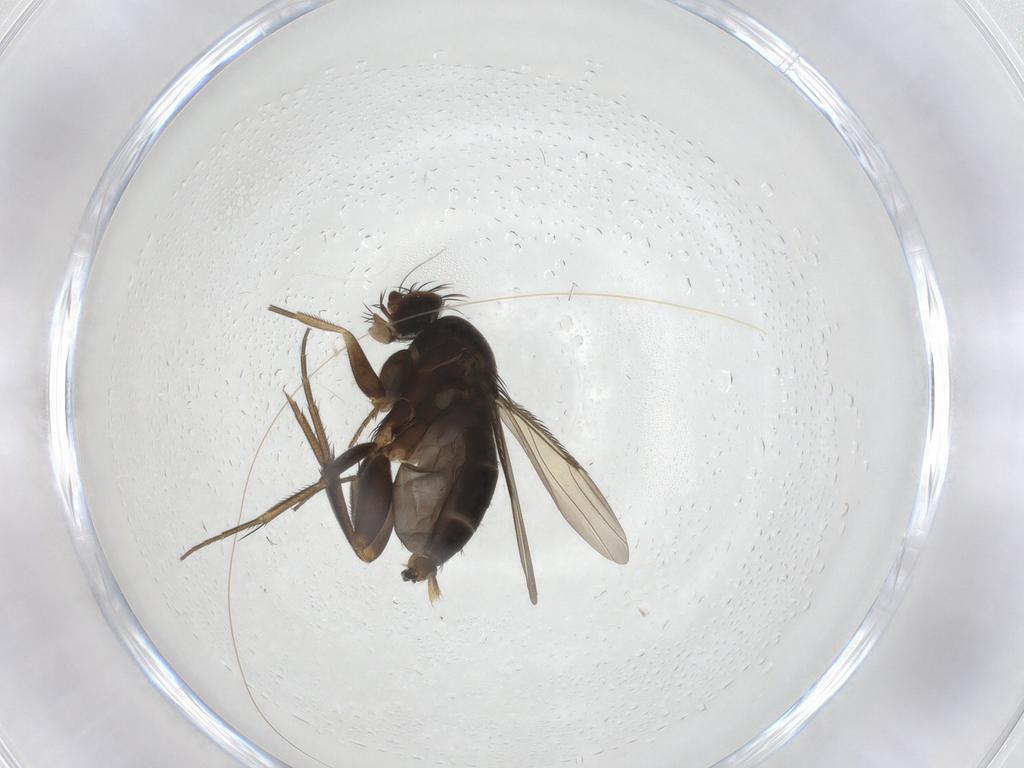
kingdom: Animalia
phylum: Arthropoda
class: Insecta
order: Diptera
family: Phoridae
